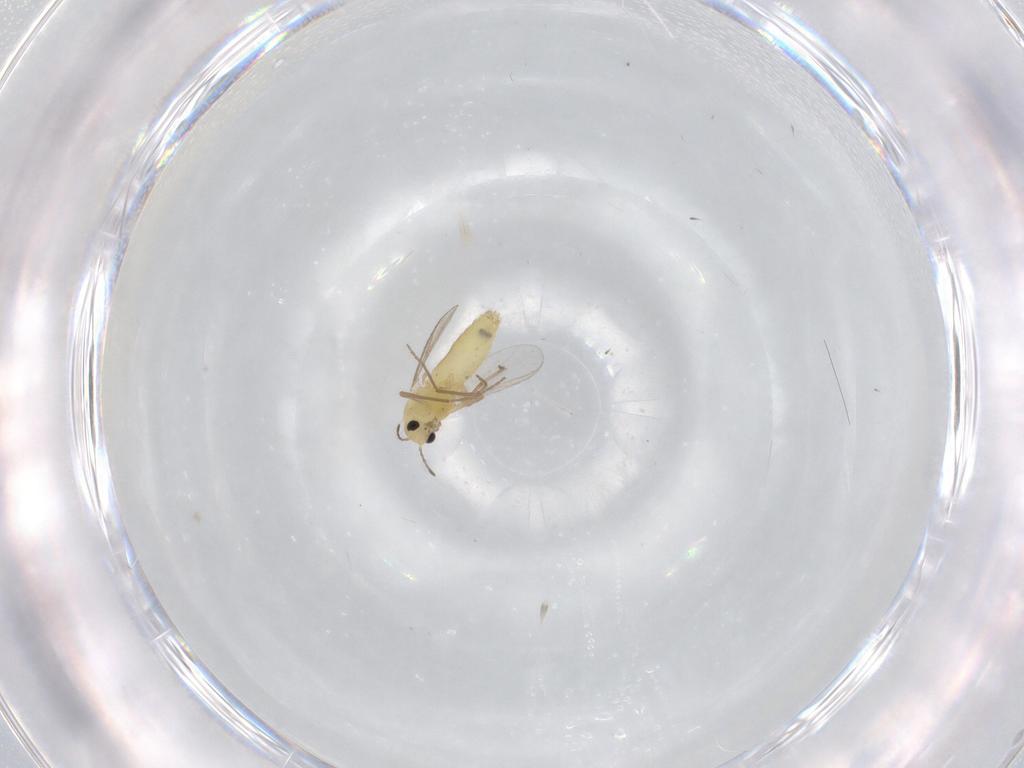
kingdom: Animalia
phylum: Arthropoda
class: Insecta
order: Diptera
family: Chironomidae
